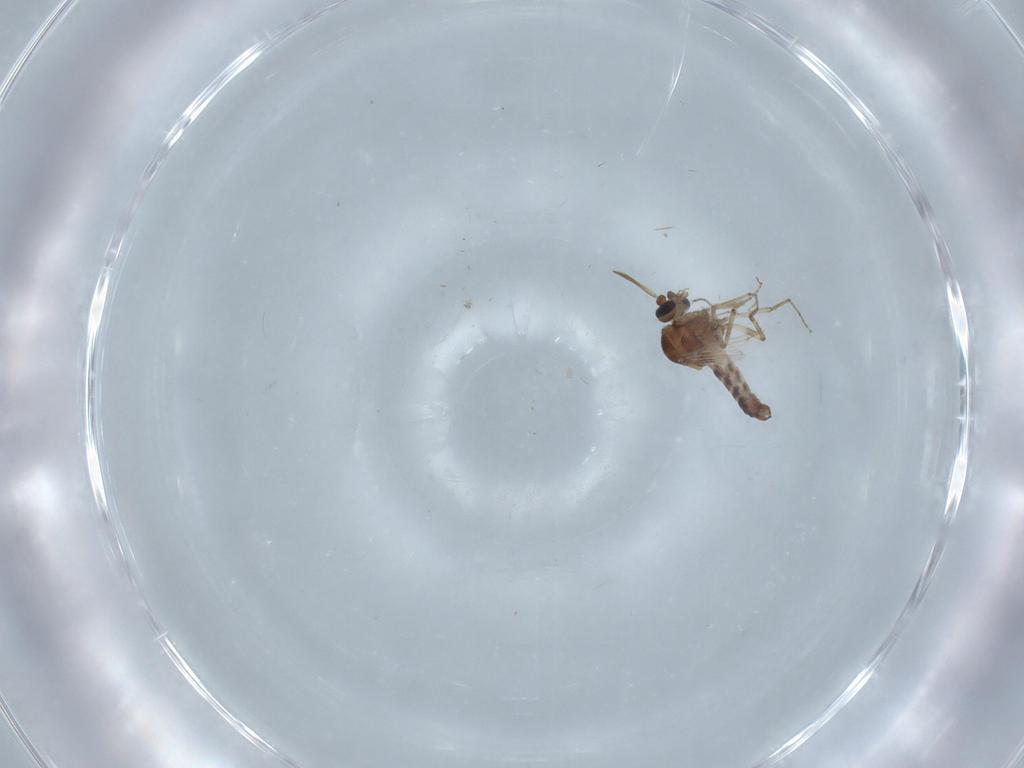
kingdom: Animalia
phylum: Arthropoda
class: Insecta
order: Diptera
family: Ceratopogonidae
